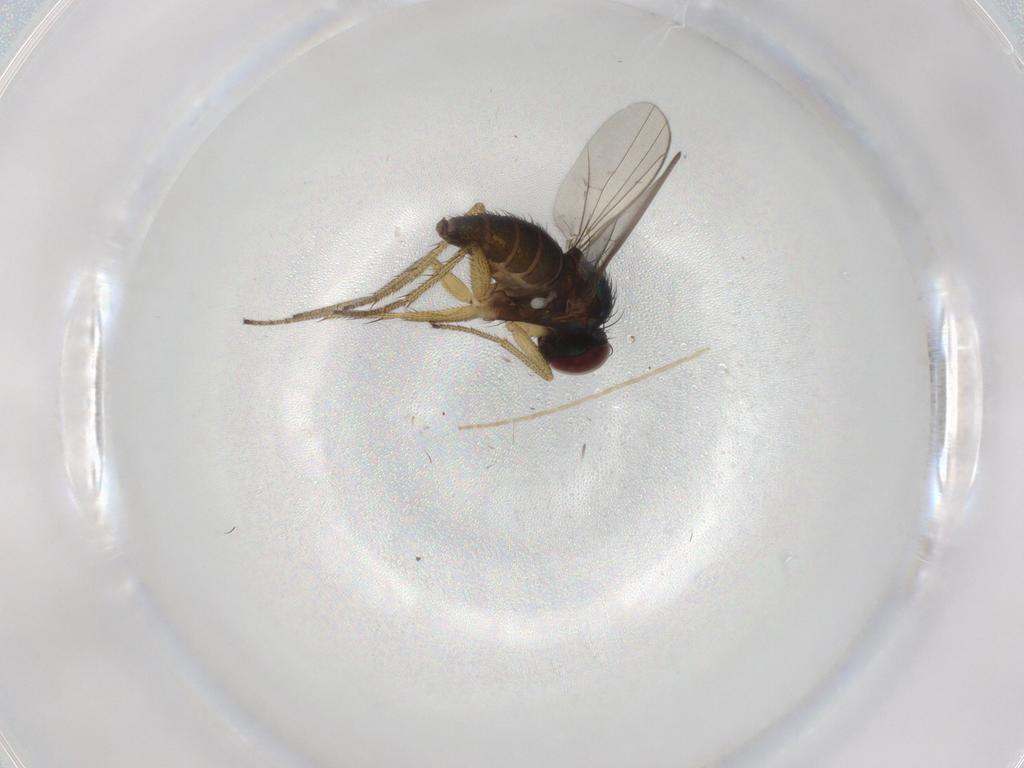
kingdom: Animalia
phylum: Arthropoda
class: Insecta
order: Diptera
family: Dolichopodidae
